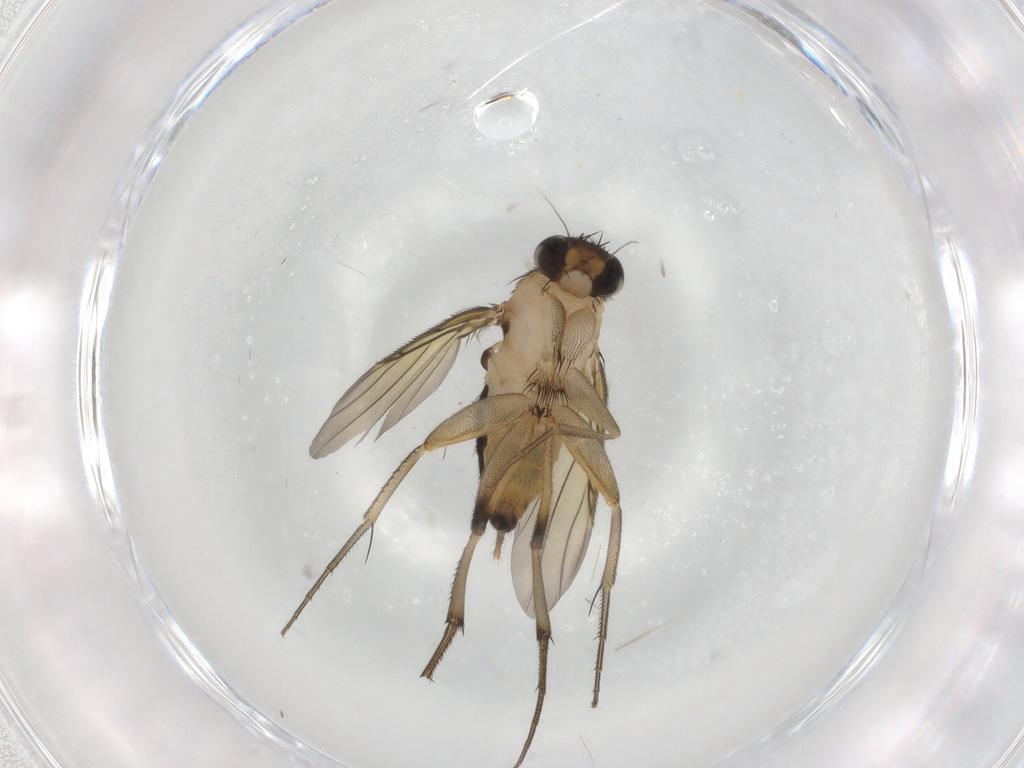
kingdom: Animalia
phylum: Arthropoda
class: Insecta
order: Diptera
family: Phoridae
